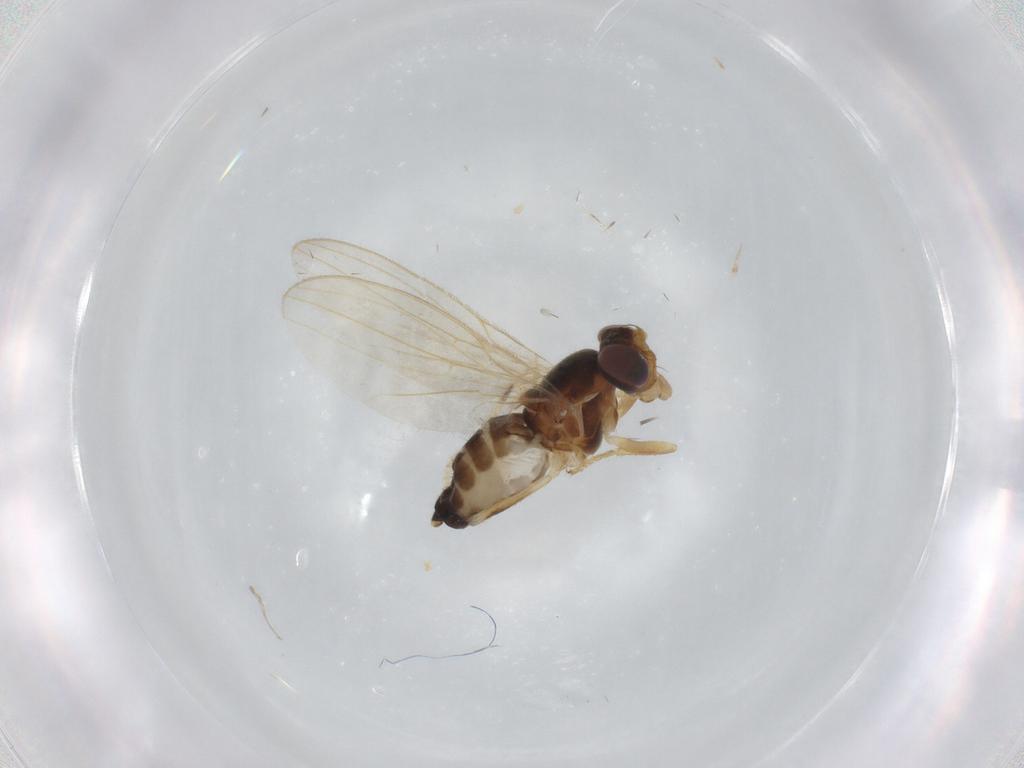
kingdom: Animalia
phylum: Arthropoda
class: Insecta
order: Diptera
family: Periscelididae
